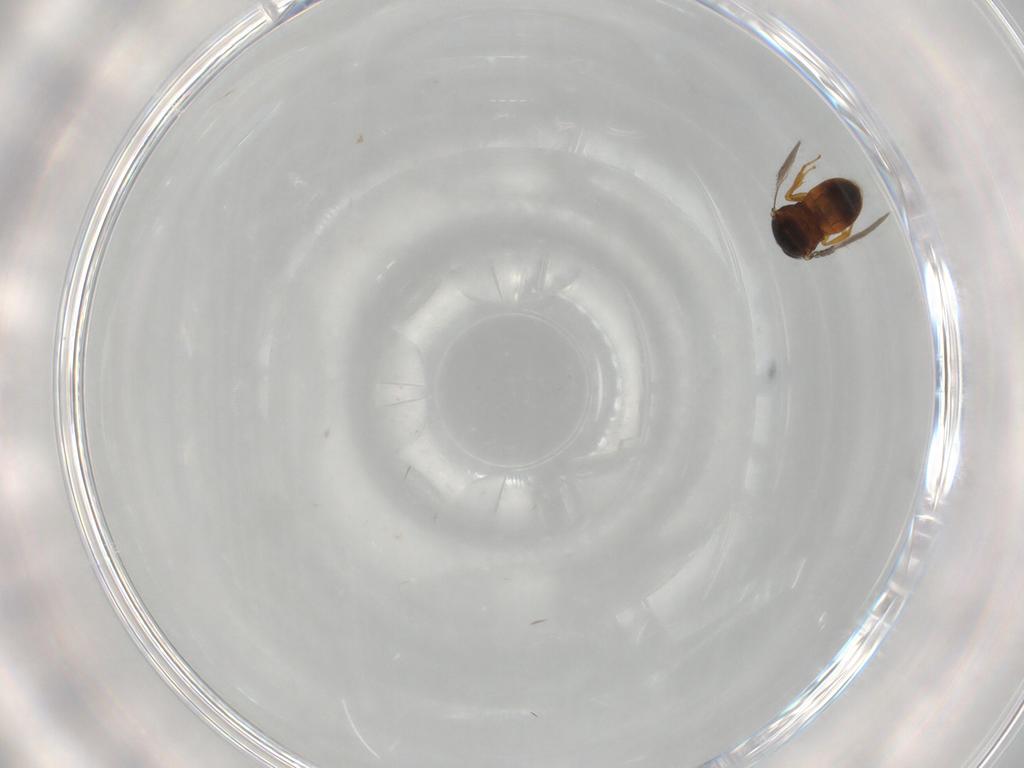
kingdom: Animalia
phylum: Arthropoda
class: Insecta
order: Hymenoptera
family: Scelionidae
